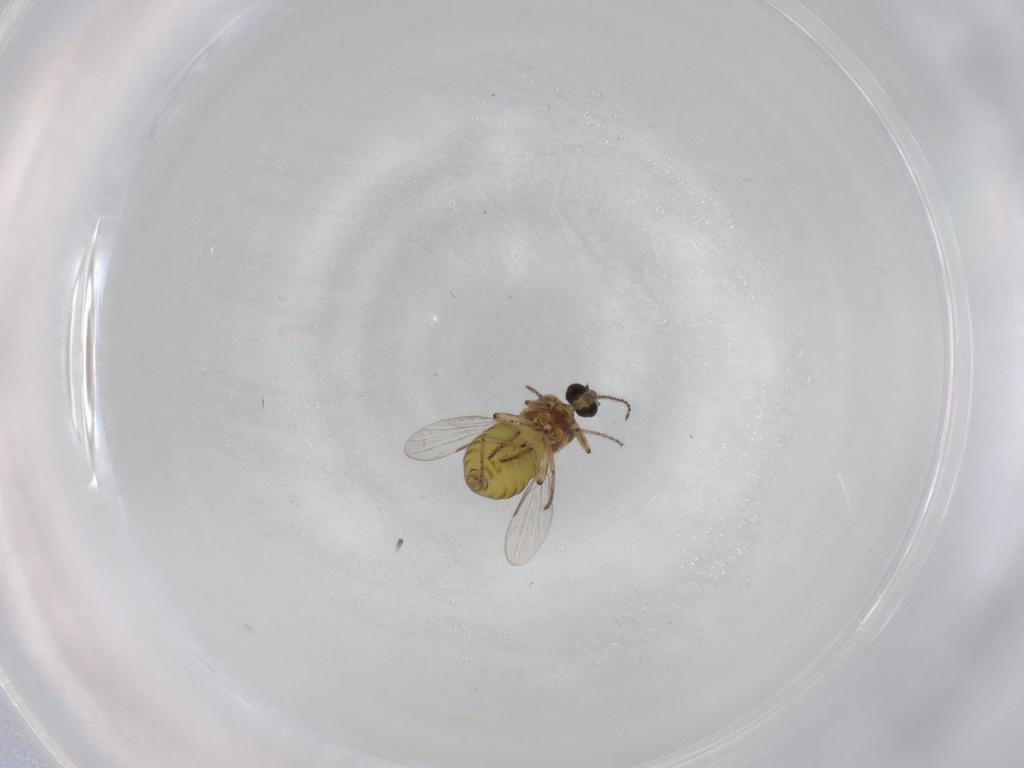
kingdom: Animalia
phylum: Arthropoda
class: Insecta
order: Diptera
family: Ceratopogonidae
